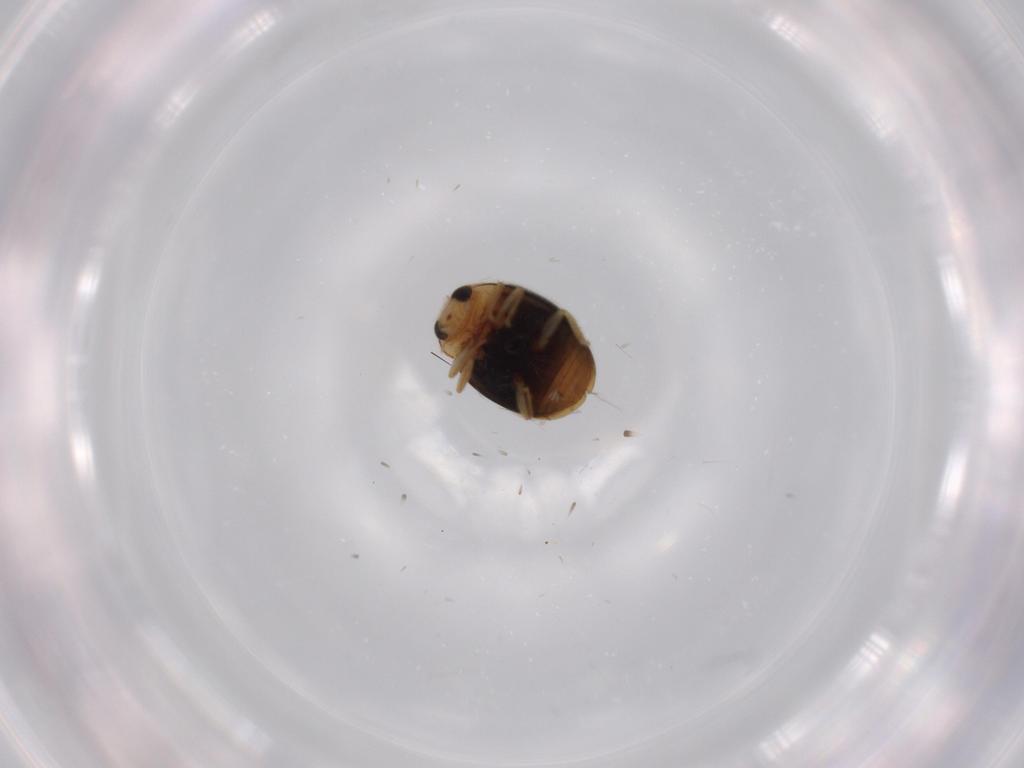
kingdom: Animalia
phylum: Arthropoda
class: Insecta
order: Coleoptera
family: Coccinellidae
